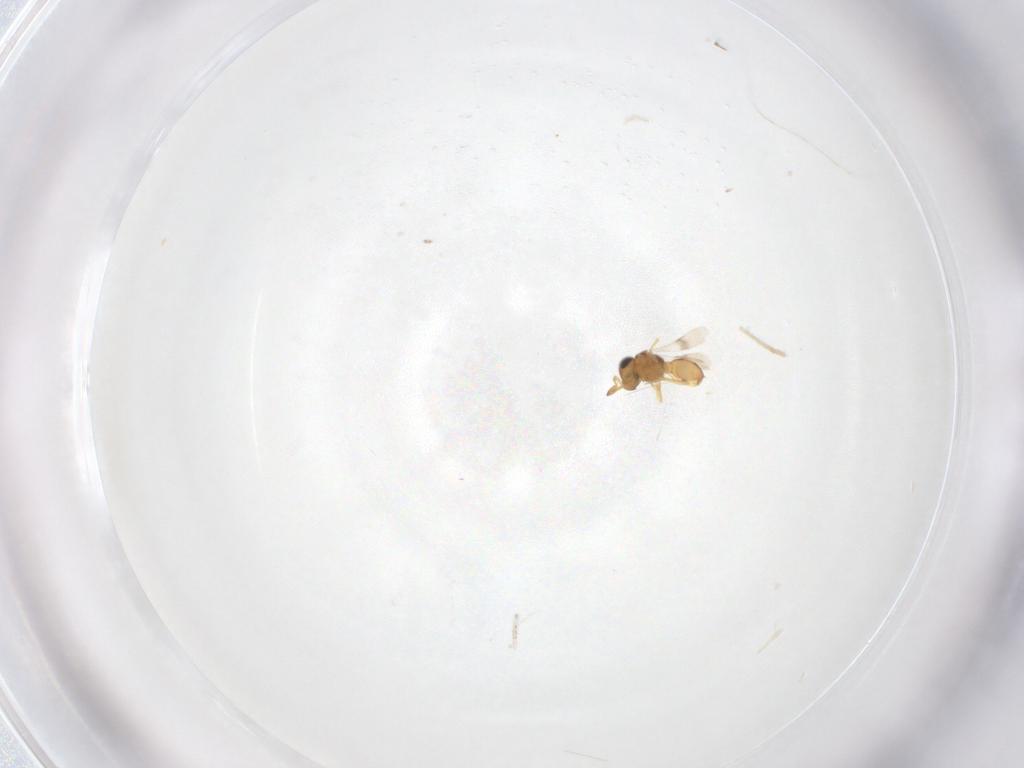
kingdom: Animalia
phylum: Arthropoda
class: Insecta
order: Hymenoptera
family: Scelionidae
